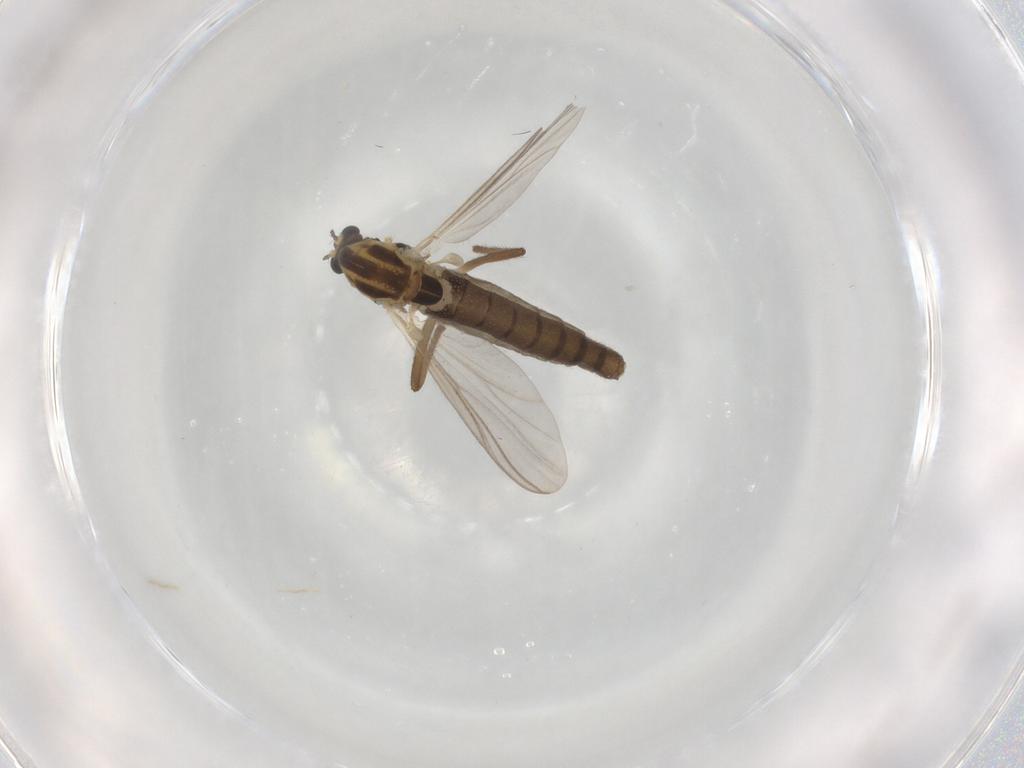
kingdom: Animalia
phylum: Arthropoda
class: Insecta
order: Diptera
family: Chironomidae
